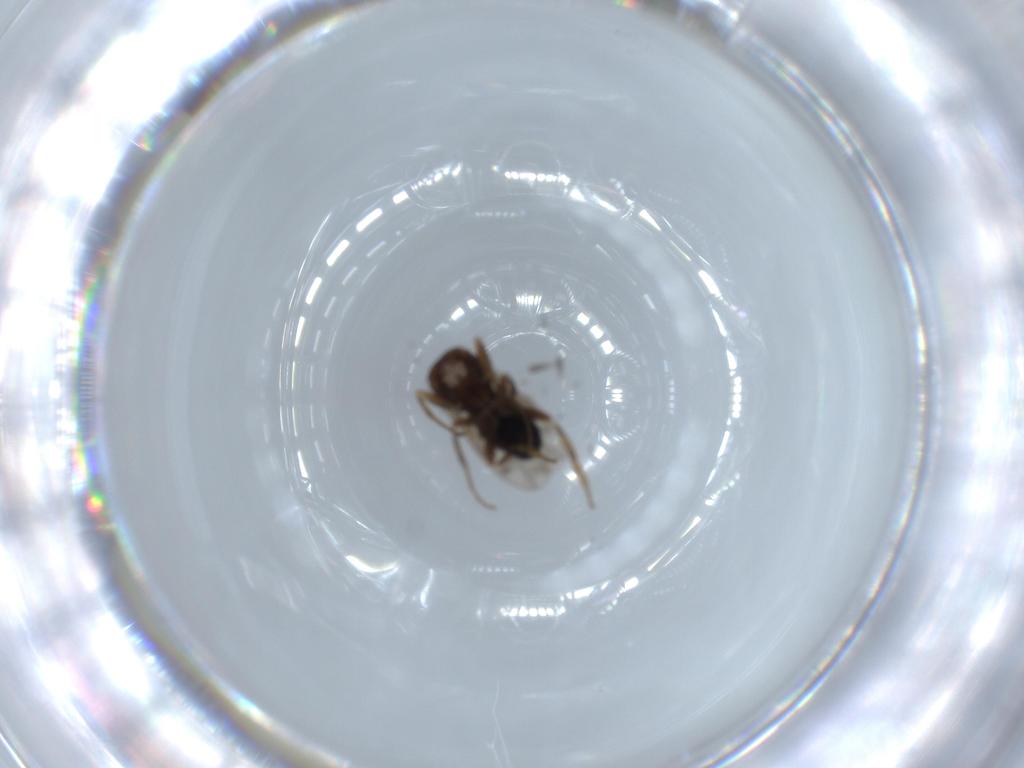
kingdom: Animalia
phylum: Arthropoda
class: Insecta
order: Diptera
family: Sphaeroceridae
